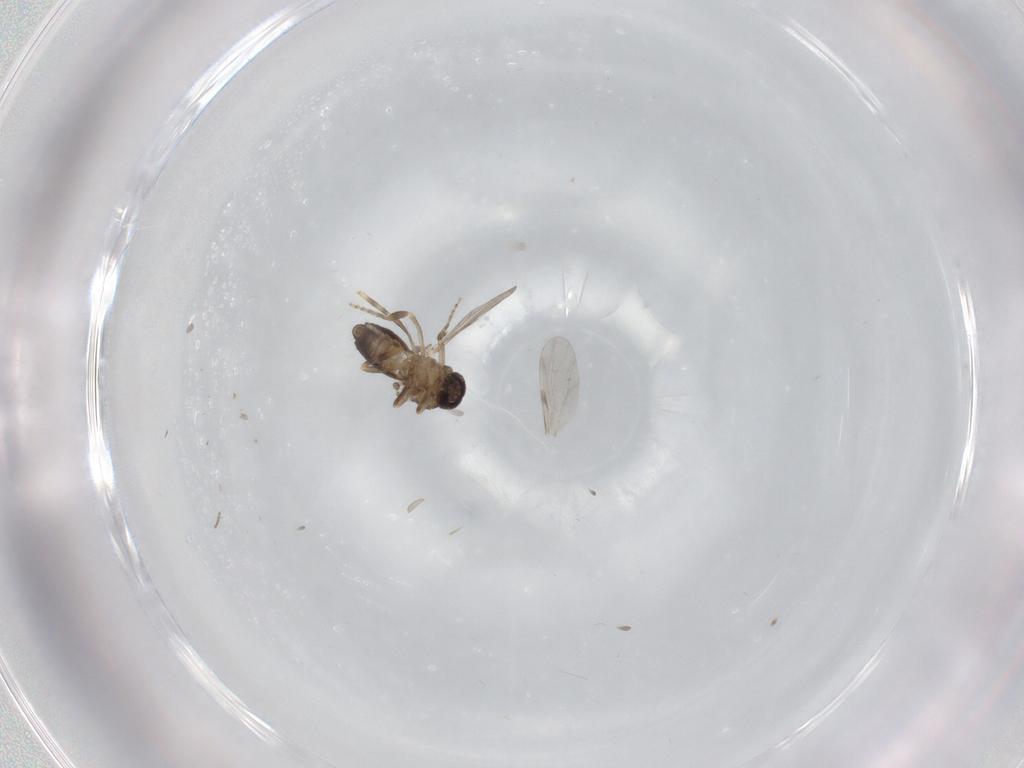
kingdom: Animalia
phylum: Arthropoda
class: Insecta
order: Diptera
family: Ceratopogonidae
